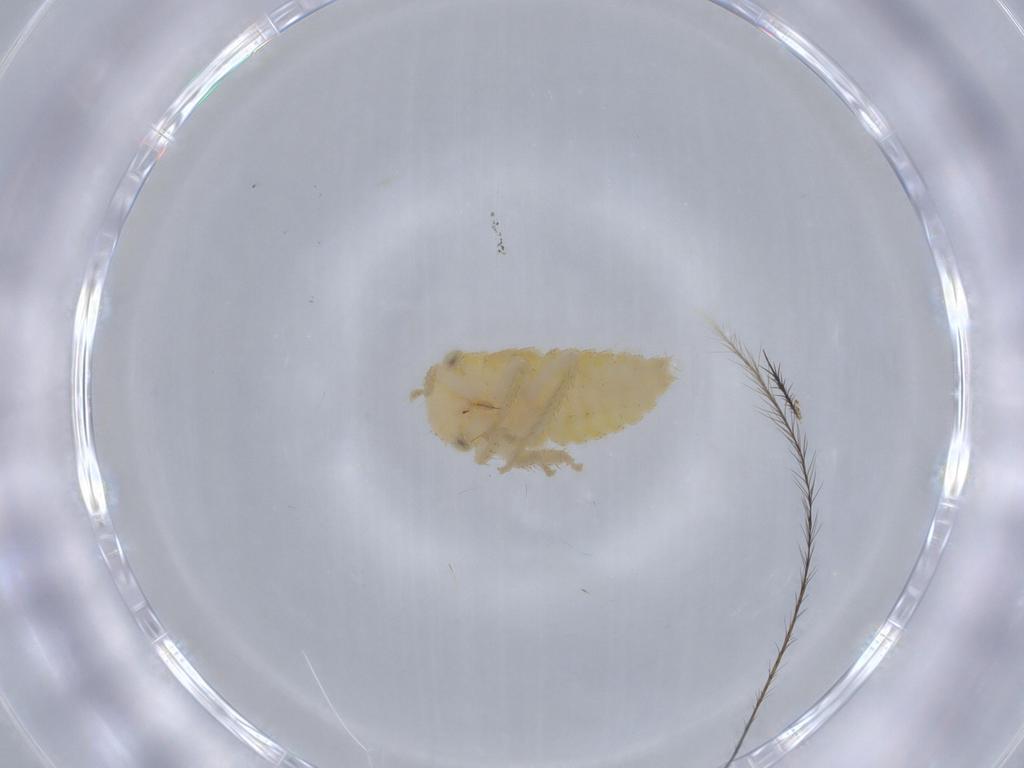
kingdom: Animalia
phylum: Arthropoda
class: Insecta
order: Hemiptera
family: Cicadellidae
